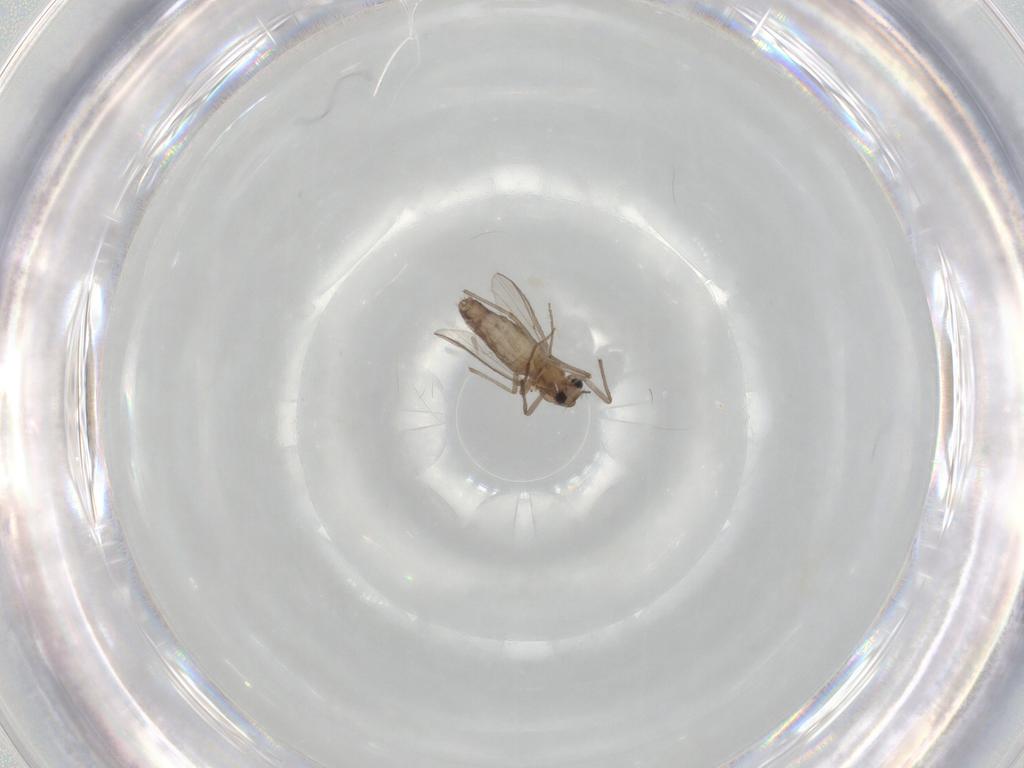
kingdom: Animalia
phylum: Arthropoda
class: Insecta
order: Diptera
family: Chironomidae
